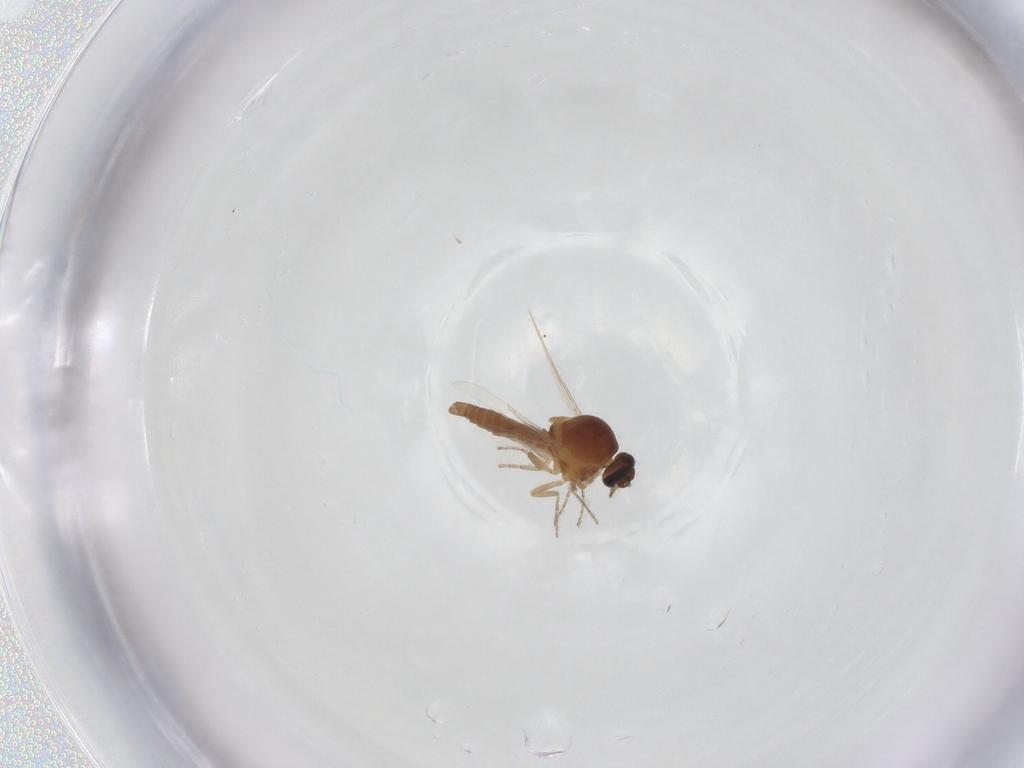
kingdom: Animalia
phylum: Arthropoda
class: Insecta
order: Diptera
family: Ceratopogonidae
